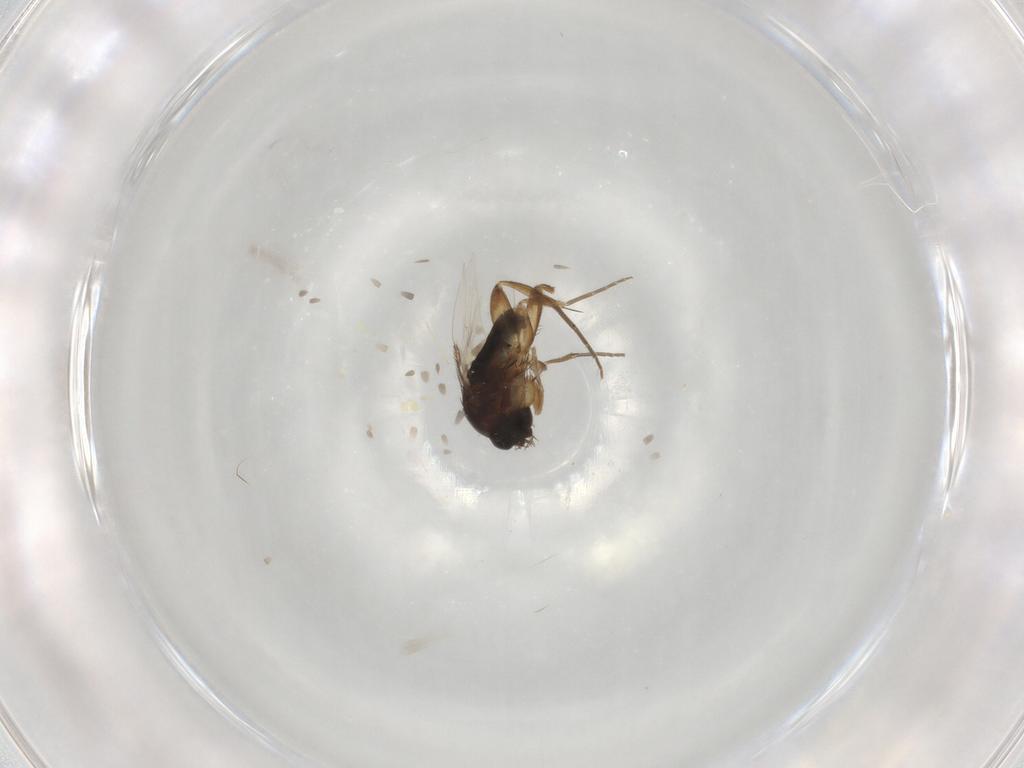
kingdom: Animalia
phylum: Arthropoda
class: Insecta
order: Diptera
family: Phoridae
